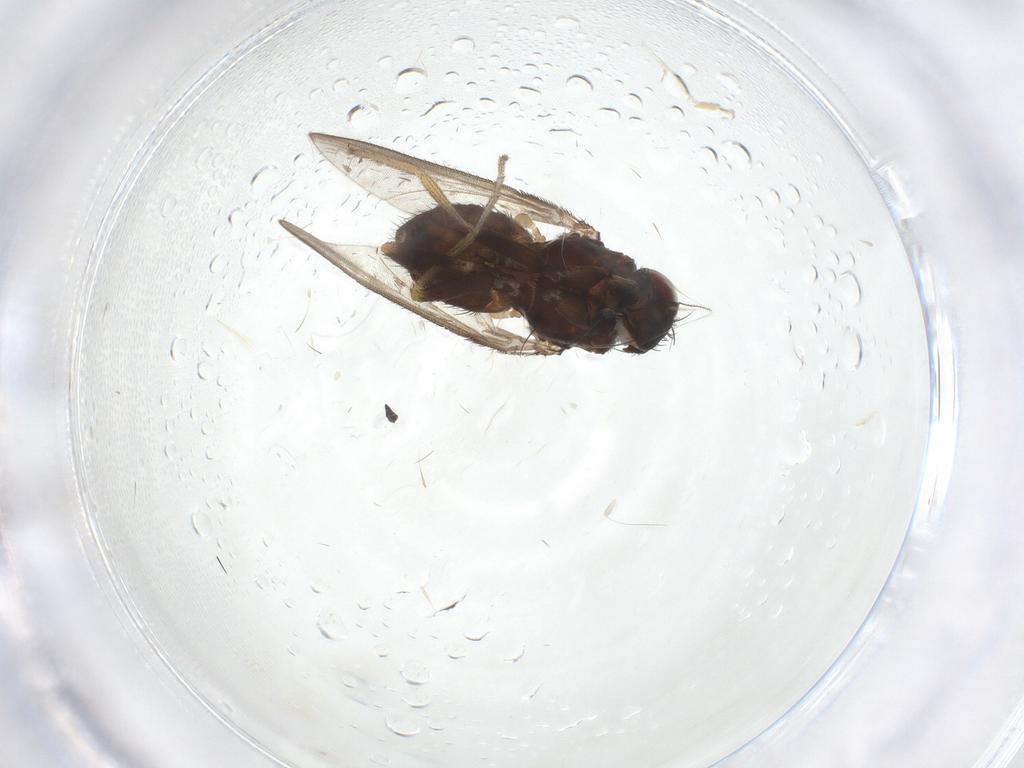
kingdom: Animalia
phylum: Arthropoda
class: Insecta
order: Diptera
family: Milichiidae
